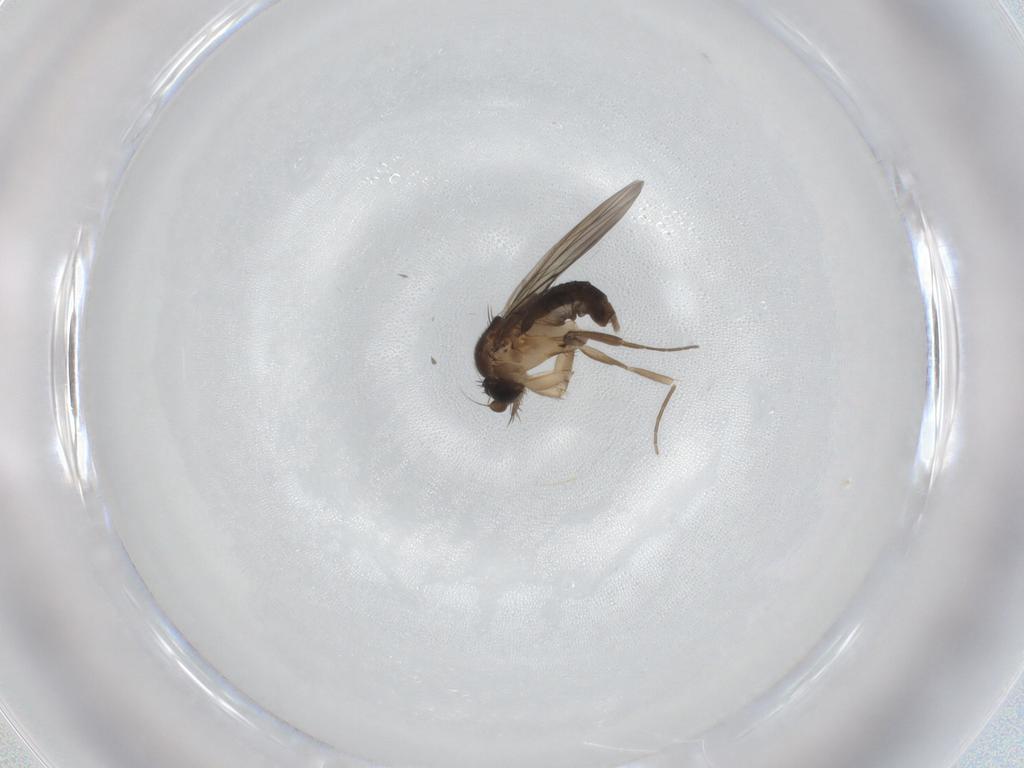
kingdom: Animalia
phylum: Arthropoda
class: Insecta
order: Diptera
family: Phoridae
